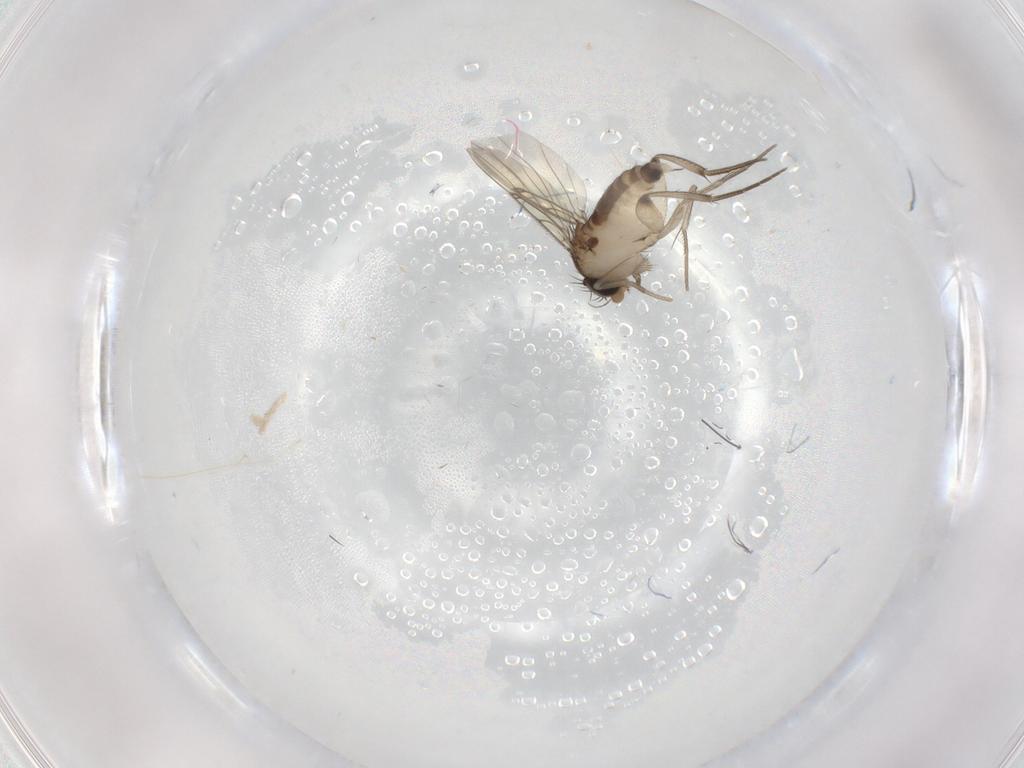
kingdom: Animalia
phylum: Arthropoda
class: Insecta
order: Diptera
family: Phoridae
